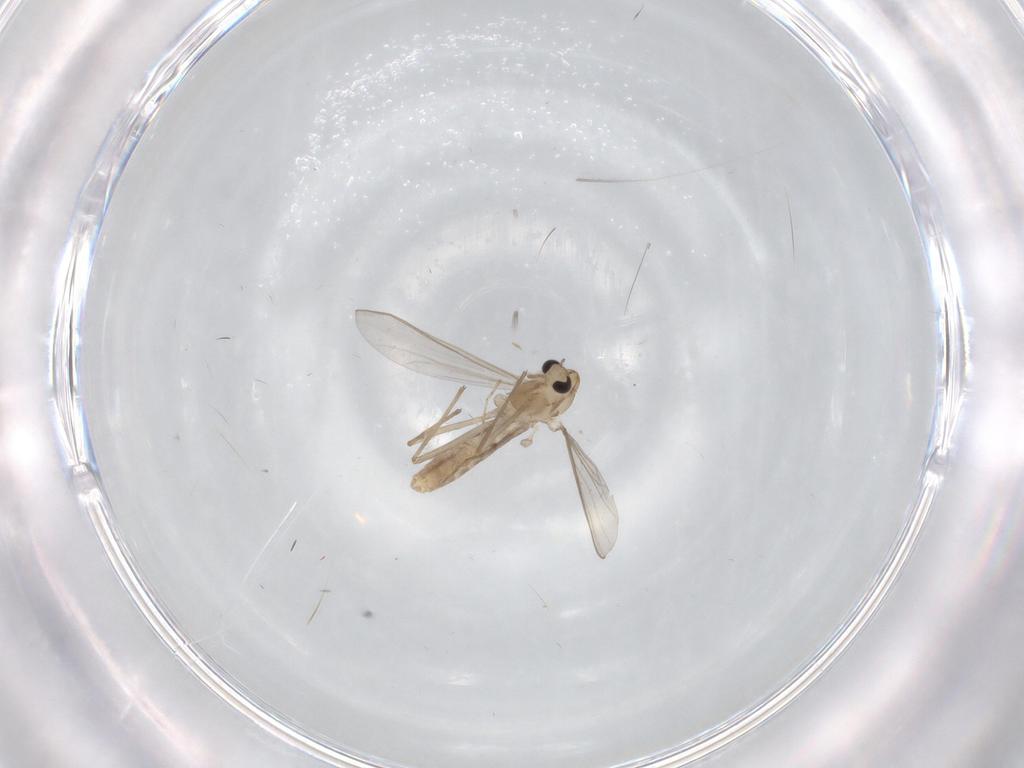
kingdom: Animalia
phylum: Arthropoda
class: Insecta
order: Diptera
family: Chironomidae
